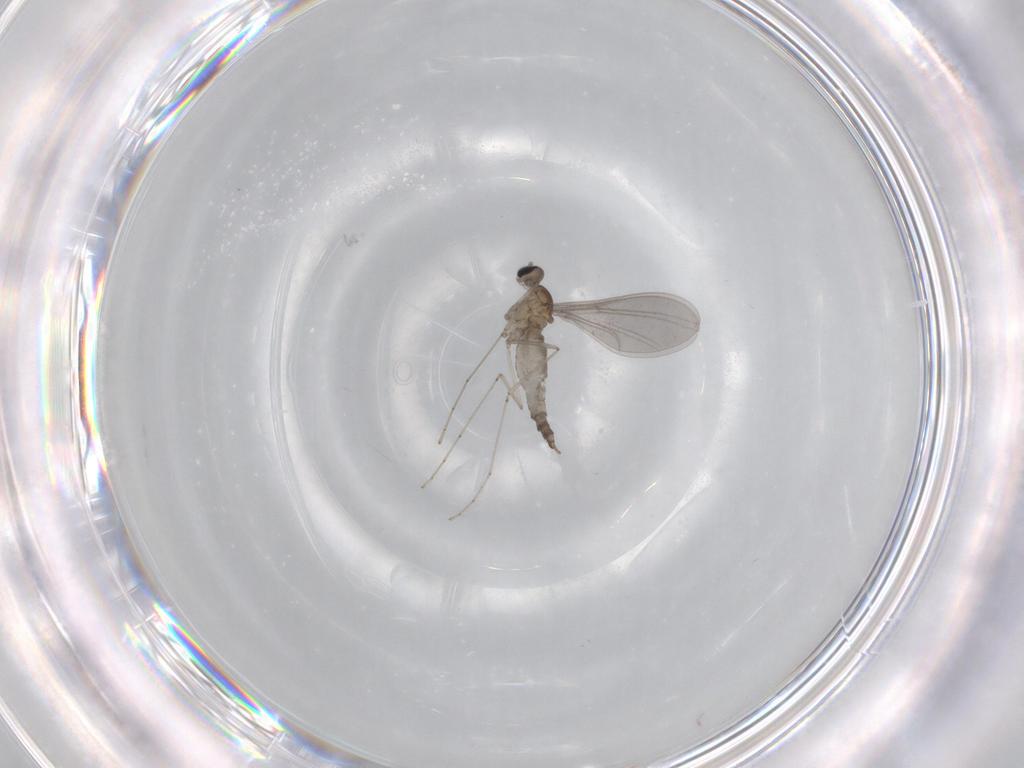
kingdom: Animalia
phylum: Arthropoda
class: Insecta
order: Diptera
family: Cecidomyiidae
